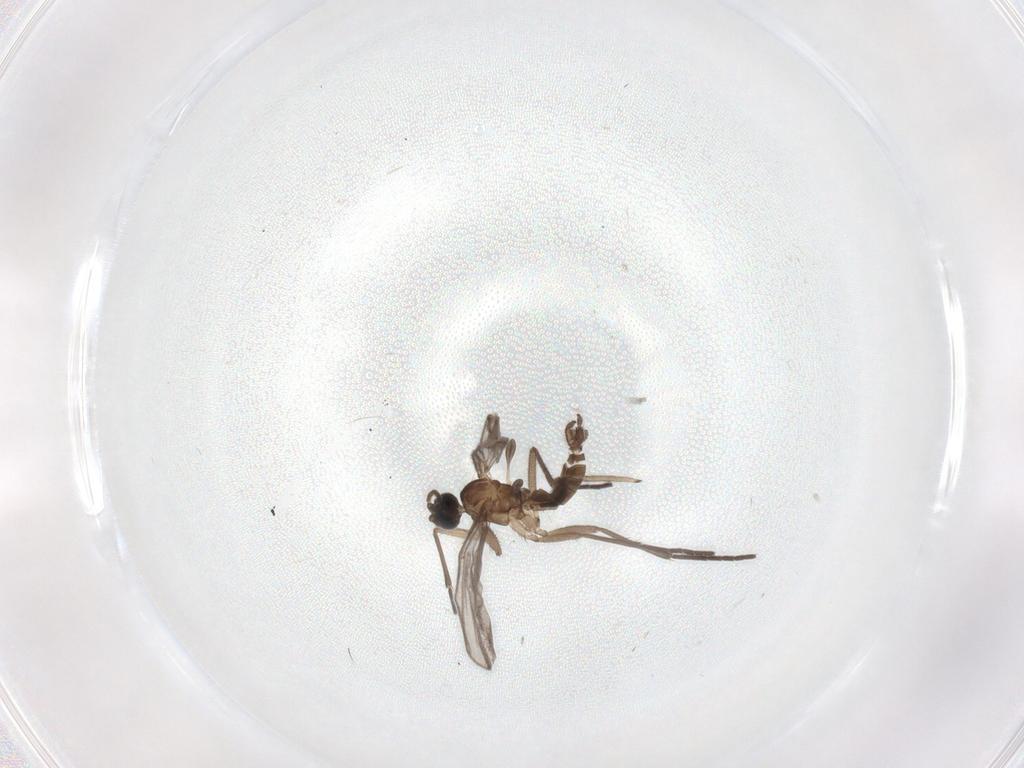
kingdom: Animalia
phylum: Arthropoda
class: Insecta
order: Diptera
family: Sciaridae
